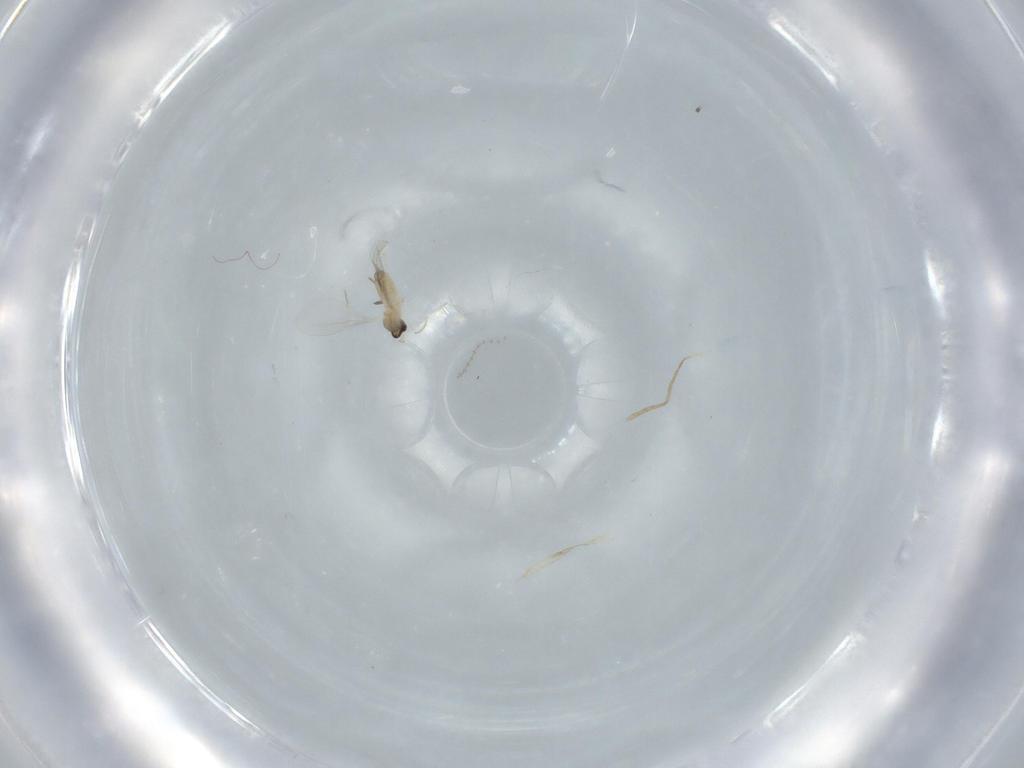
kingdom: Animalia
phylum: Arthropoda
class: Insecta
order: Diptera
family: Cecidomyiidae
